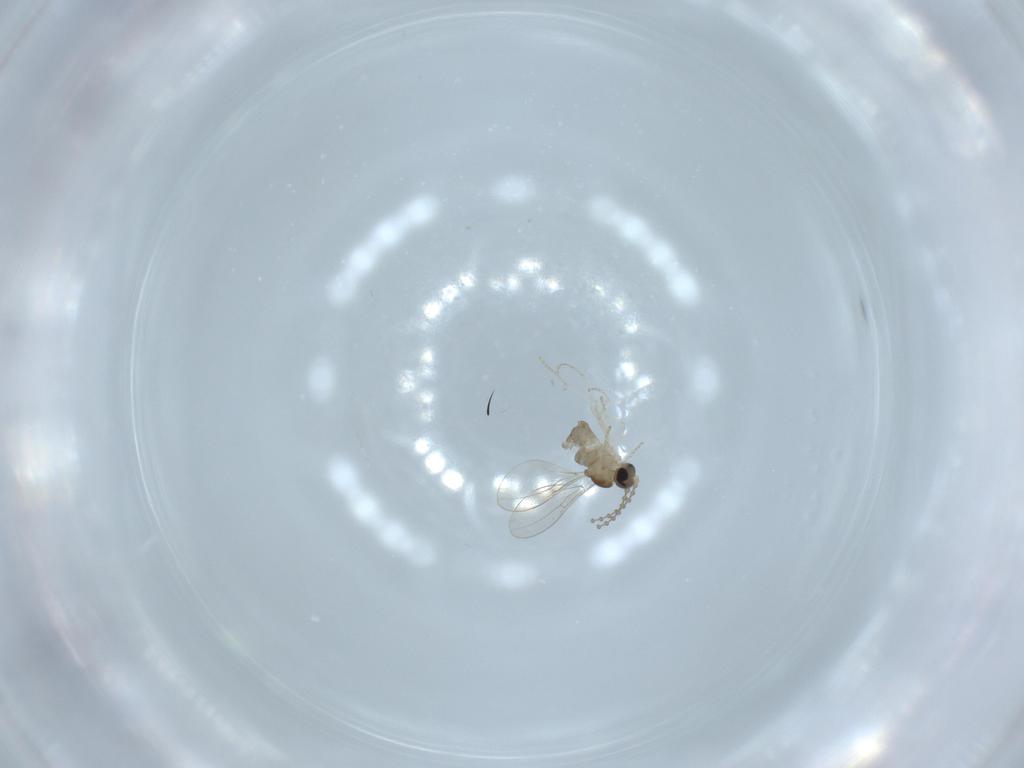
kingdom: Animalia
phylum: Arthropoda
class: Insecta
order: Diptera
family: Cecidomyiidae
